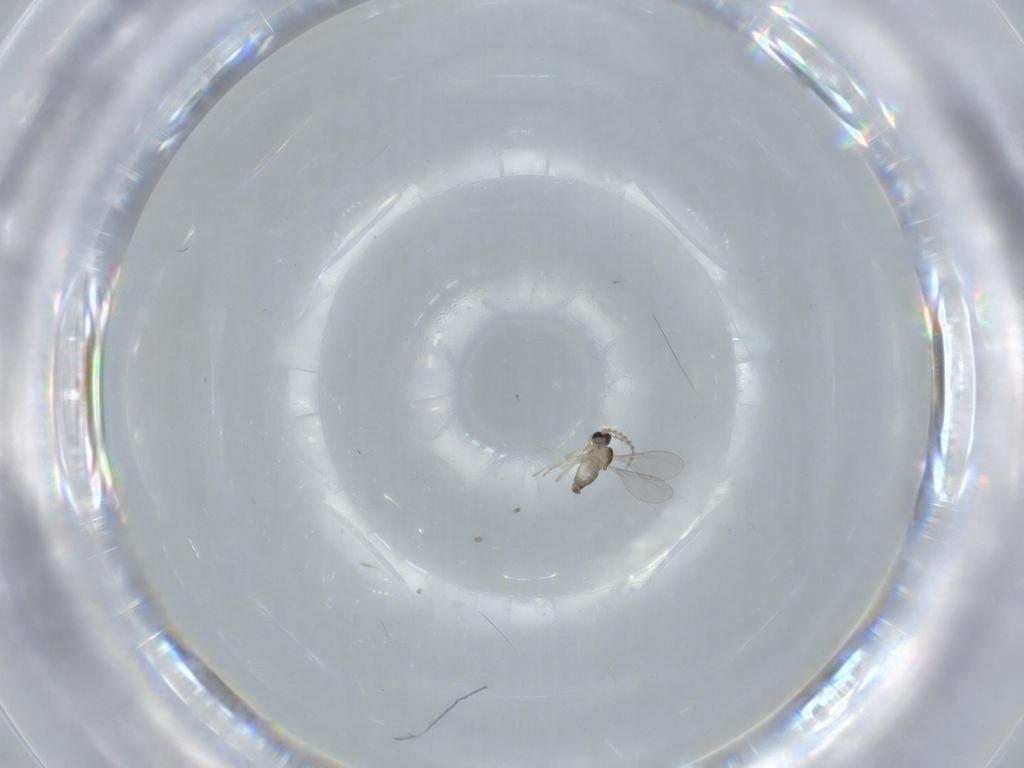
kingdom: Animalia
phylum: Arthropoda
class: Insecta
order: Diptera
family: Cecidomyiidae
